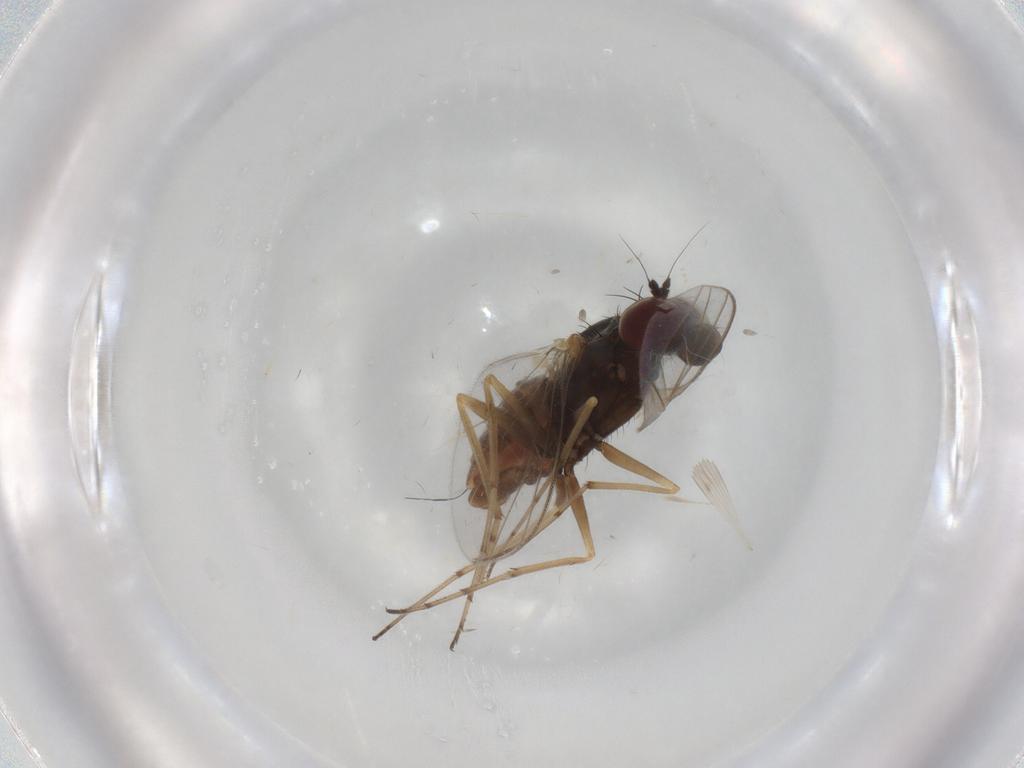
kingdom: Animalia
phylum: Arthropoda
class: Insecta
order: Diptera
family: Dolichopodidae
